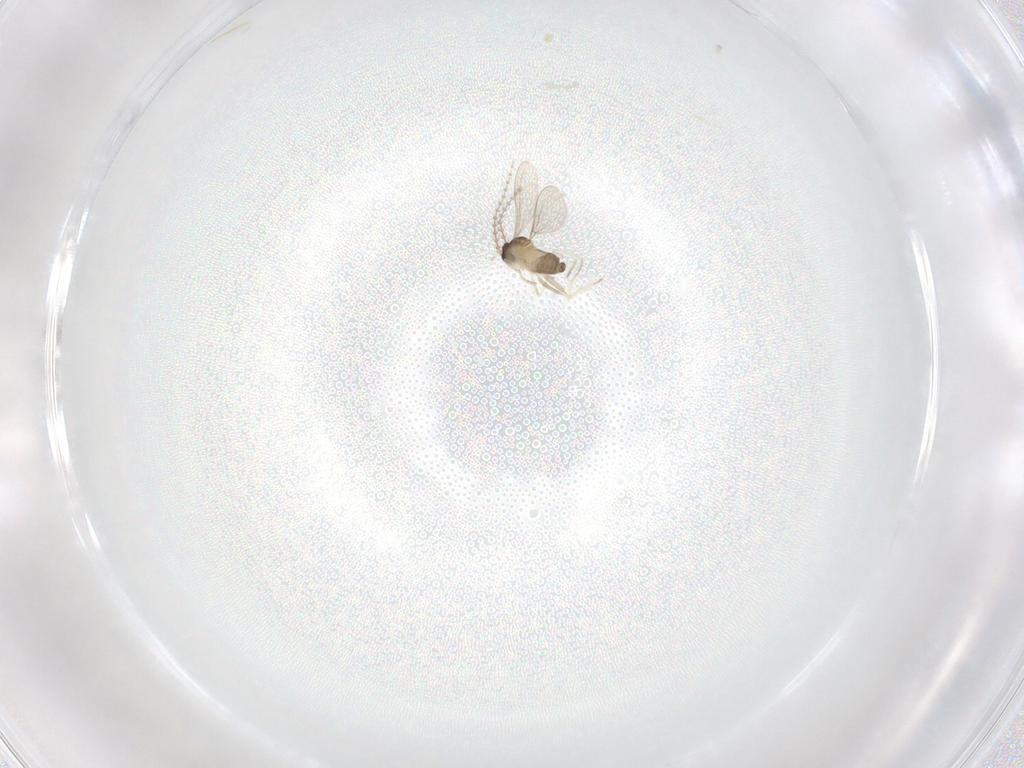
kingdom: Animalia
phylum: Arthropoda
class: Insecta
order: Diptera
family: Cecidomyiidae
